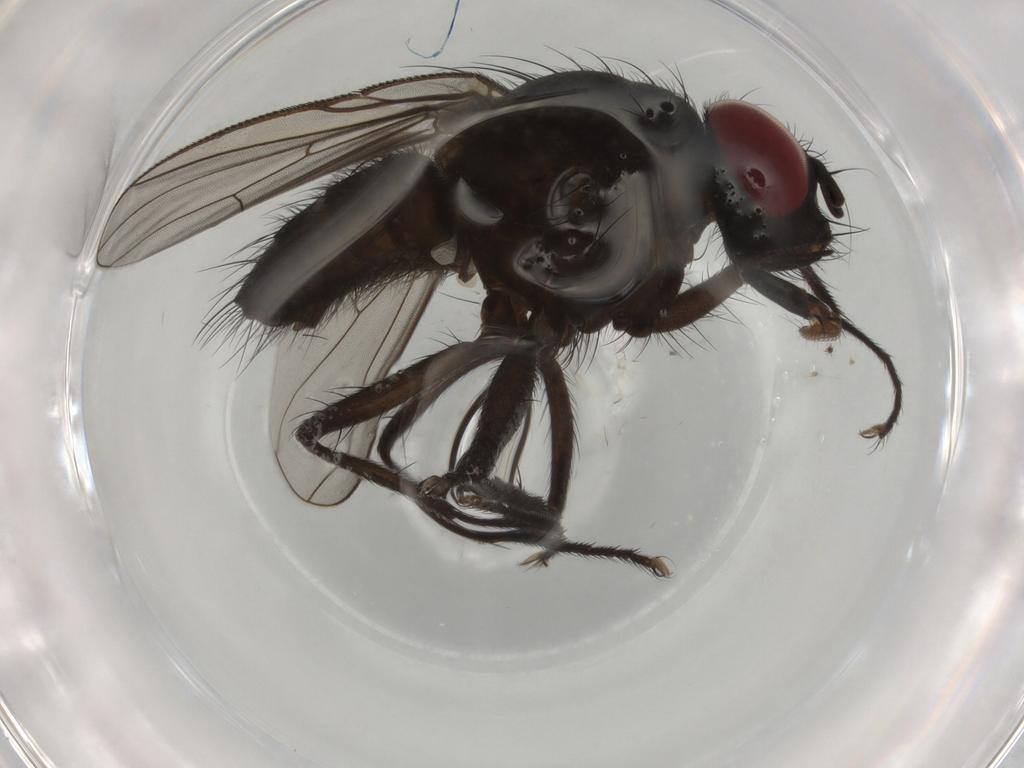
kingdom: Animalia
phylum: Arthropoda
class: Insecta
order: Diptera
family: Muscidae
